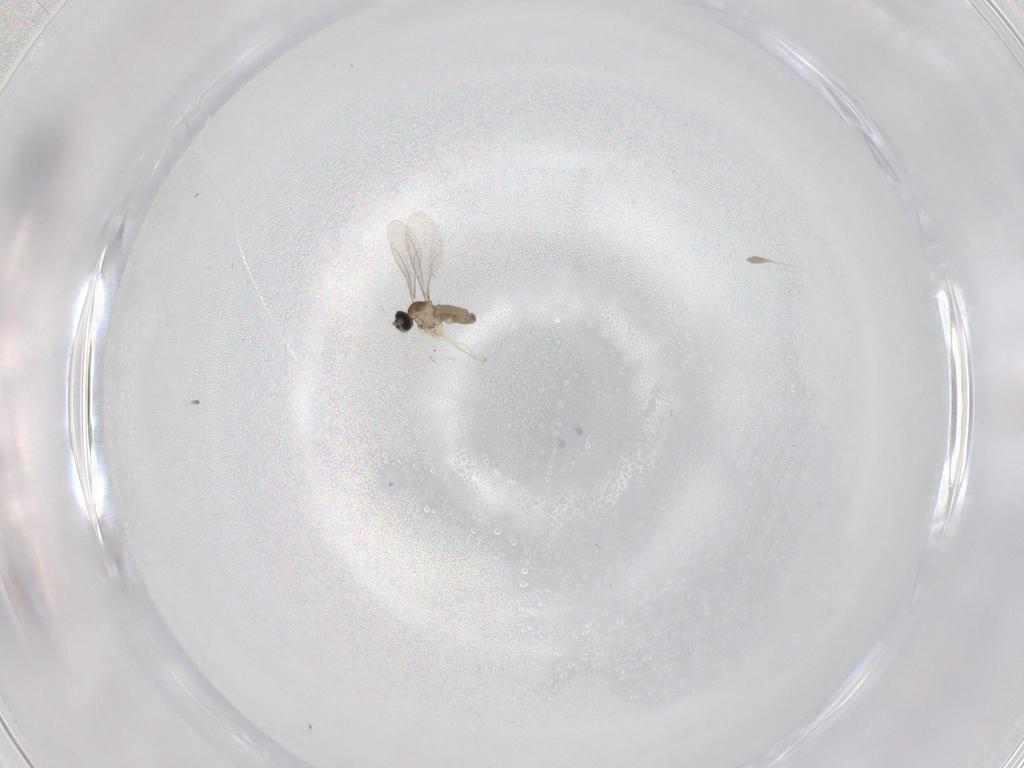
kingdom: Animalia
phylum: Arthropoda
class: Insecta
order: Diptera
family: Cecidomyiidae
